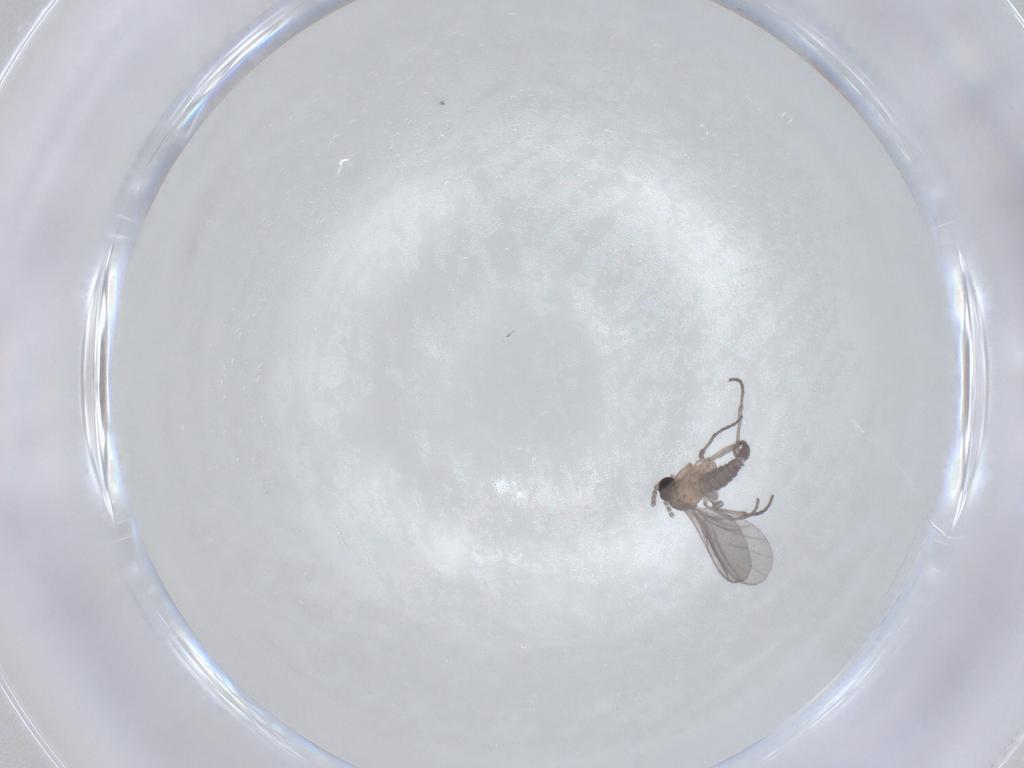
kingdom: Animalia
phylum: Arthropoda
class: Insecta
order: Diptera
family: Sciaridae
